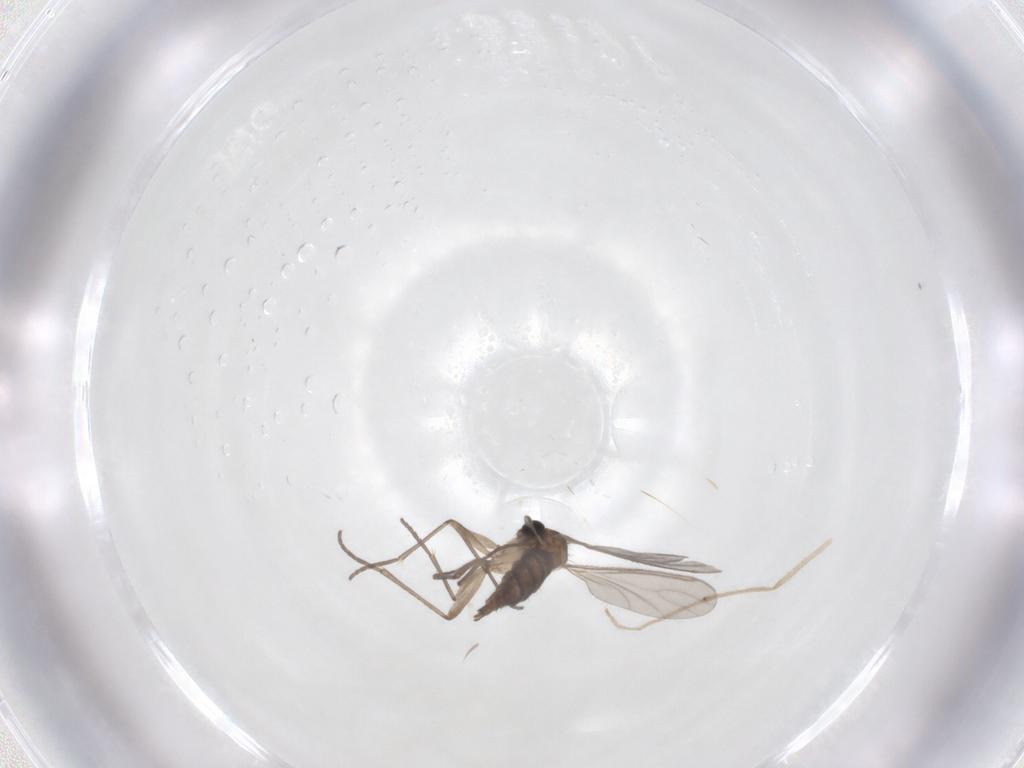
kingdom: Animalia
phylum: Arthropoda
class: Insecta
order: Diptera
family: Sciaridae
